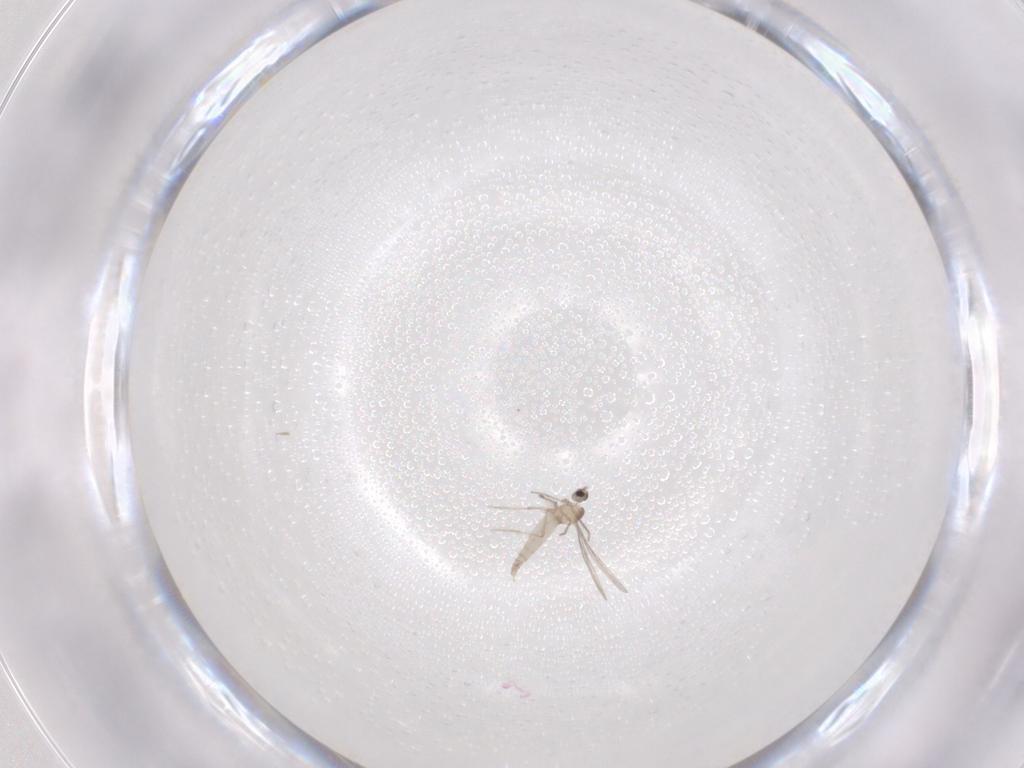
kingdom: Animalia
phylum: Arthropoda
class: Insecta
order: Diptera
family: Cecidomyiidae
